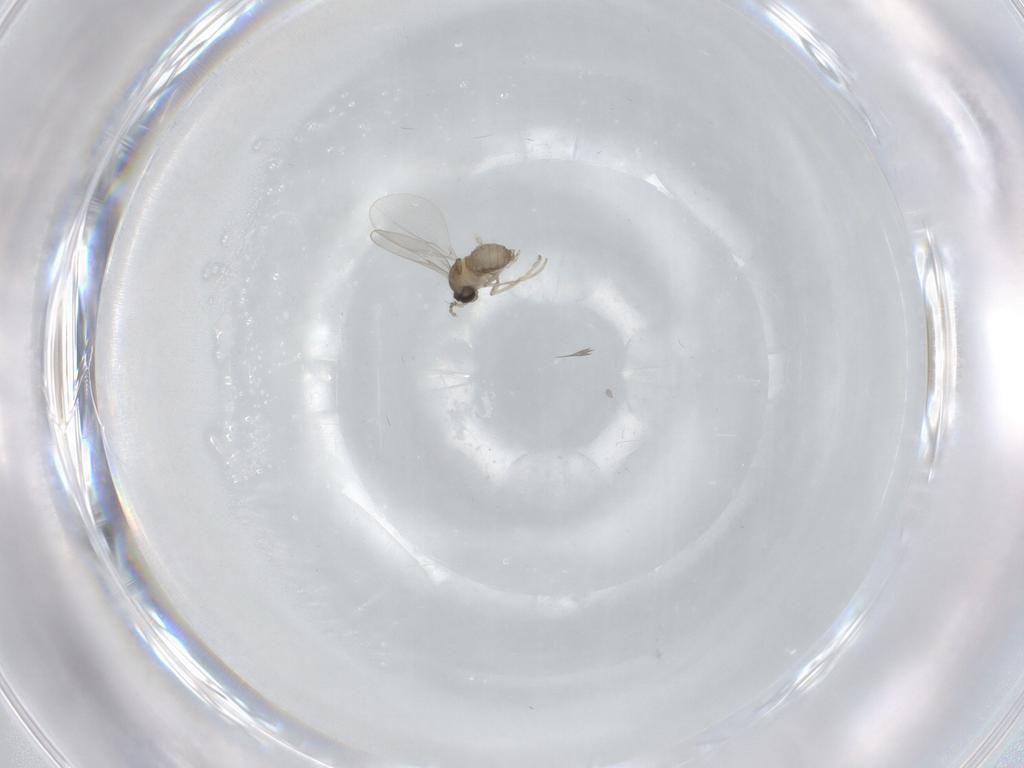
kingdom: Animalia
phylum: Arthropoda
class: Insecta
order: Diptera
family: Cecidomyiidae
